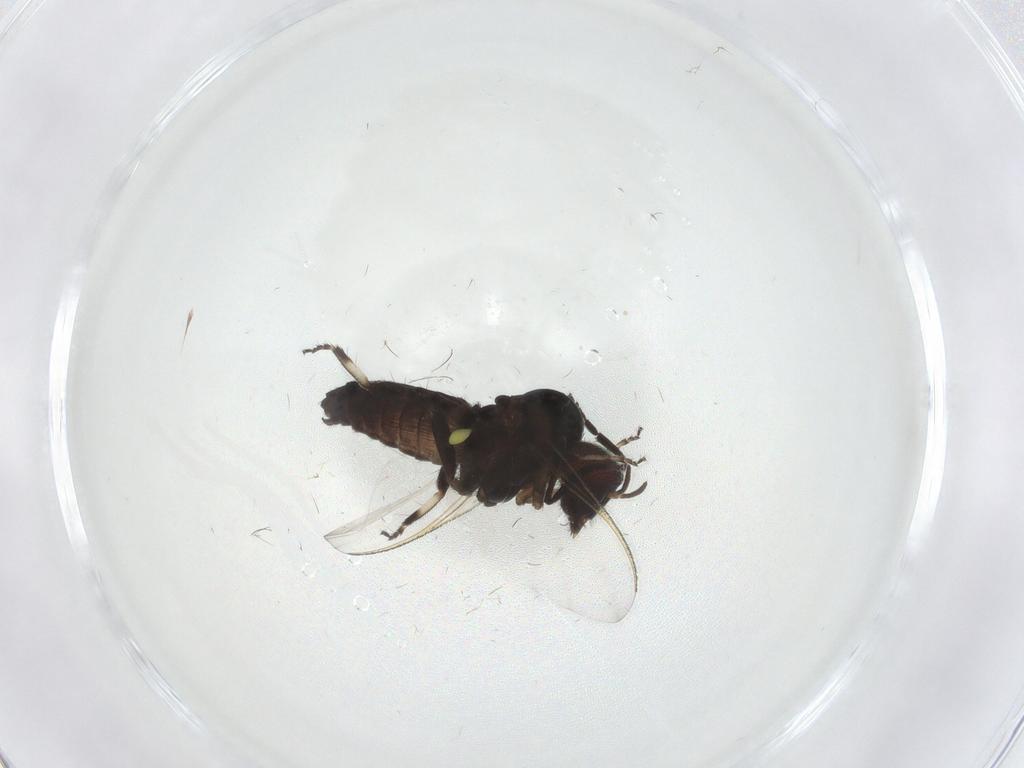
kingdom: Animalia
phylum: Arthropoda
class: Insecta
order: Diptera
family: Simuliidae
